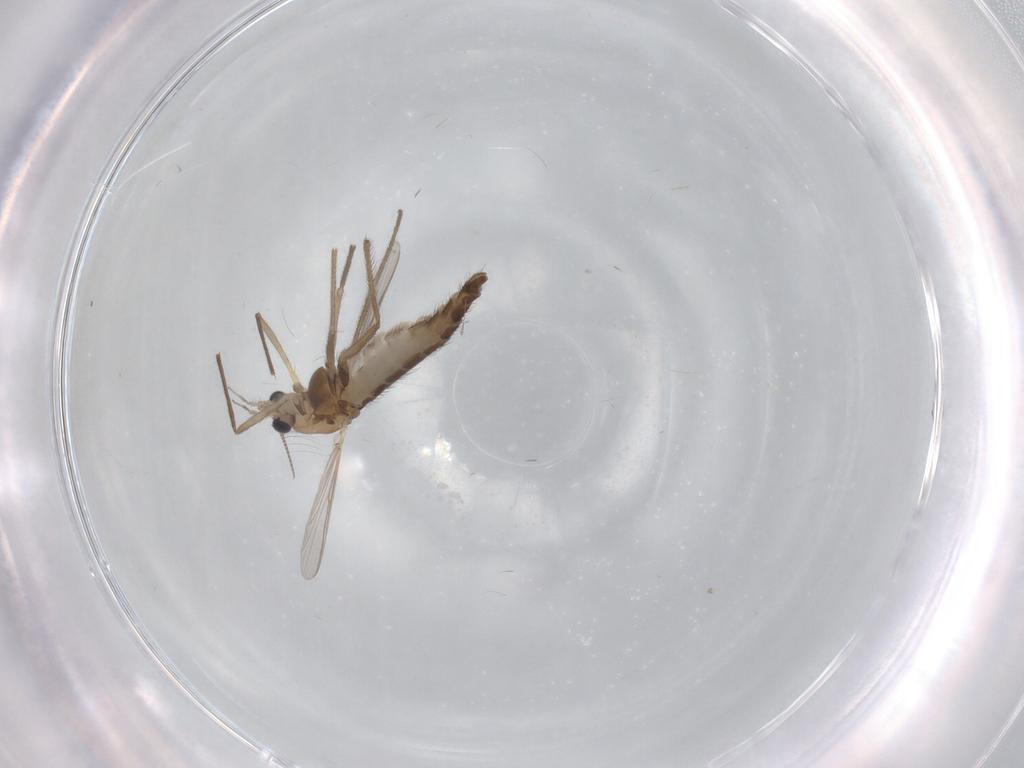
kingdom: Animalia
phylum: Arthropoda
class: Insecta
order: Diptera
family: Chironomidae
